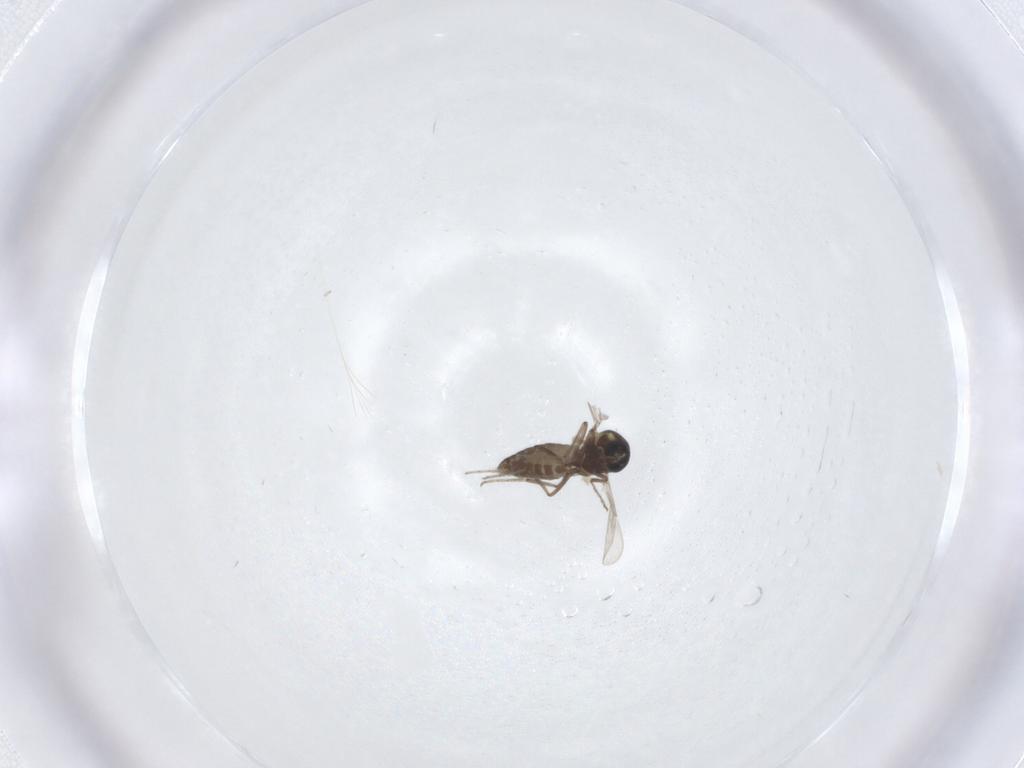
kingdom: Animalia
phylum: Arthropoda
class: Insecta
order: Diptera
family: Ceratopogonidae
